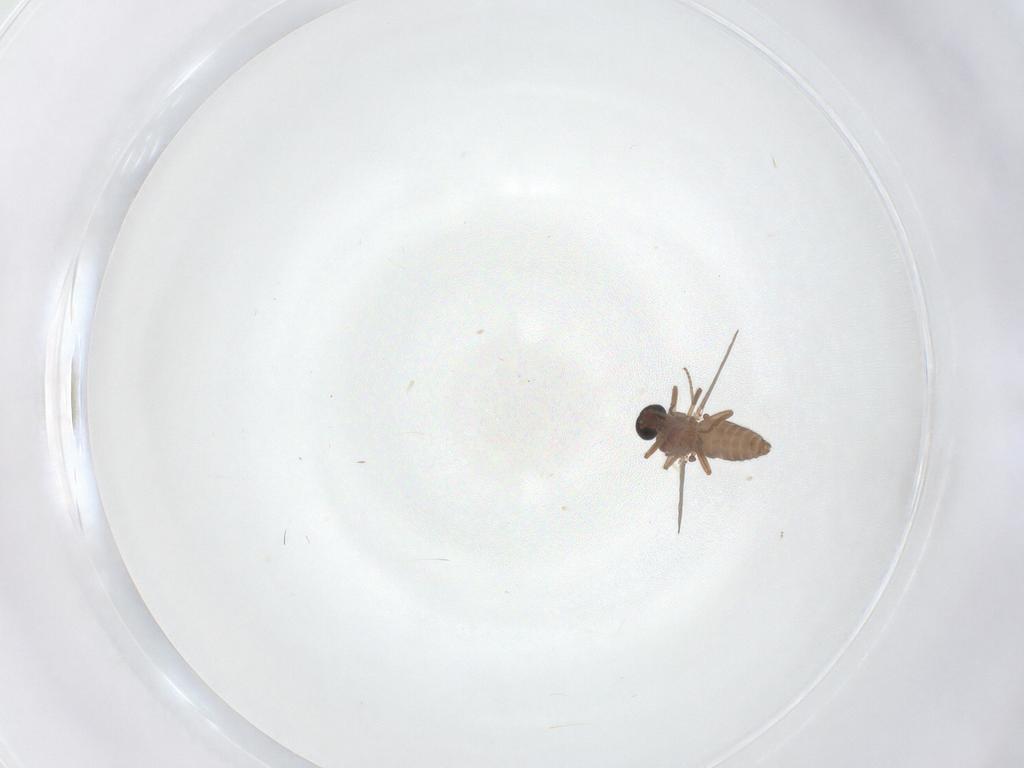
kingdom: Animalia
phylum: Arthropoda
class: Insecta
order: Diptera
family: Ceratopogonidae
